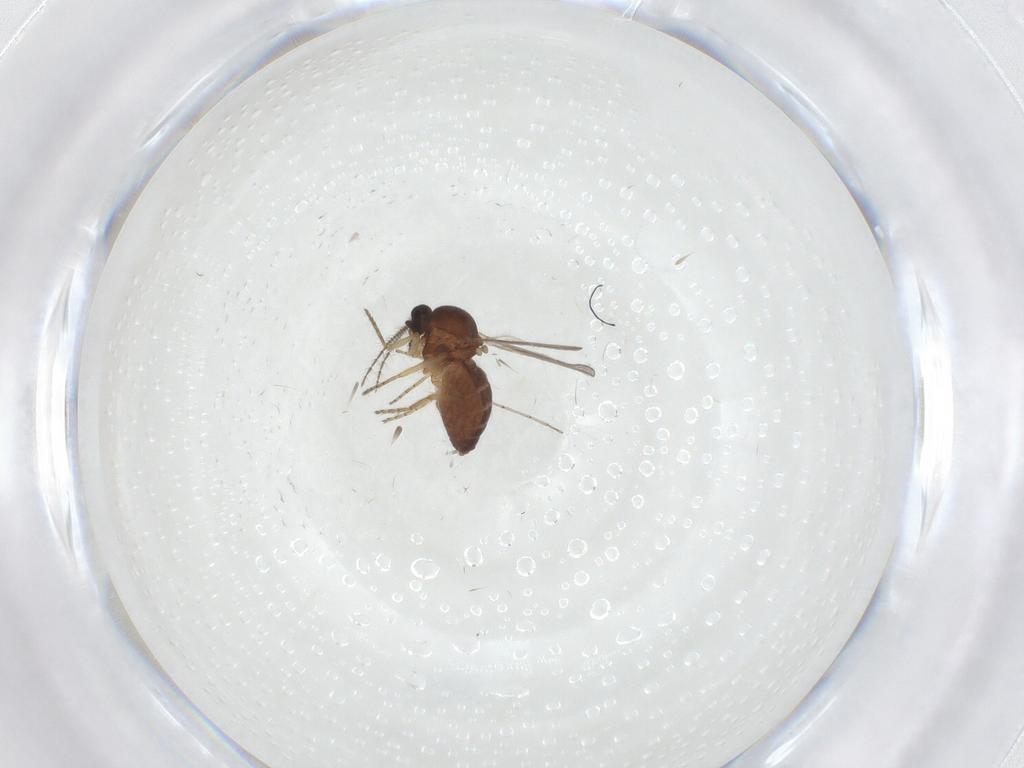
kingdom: Animalia
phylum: Arthropoda
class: Insecta
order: Diptera
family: Ceratopogonidae
